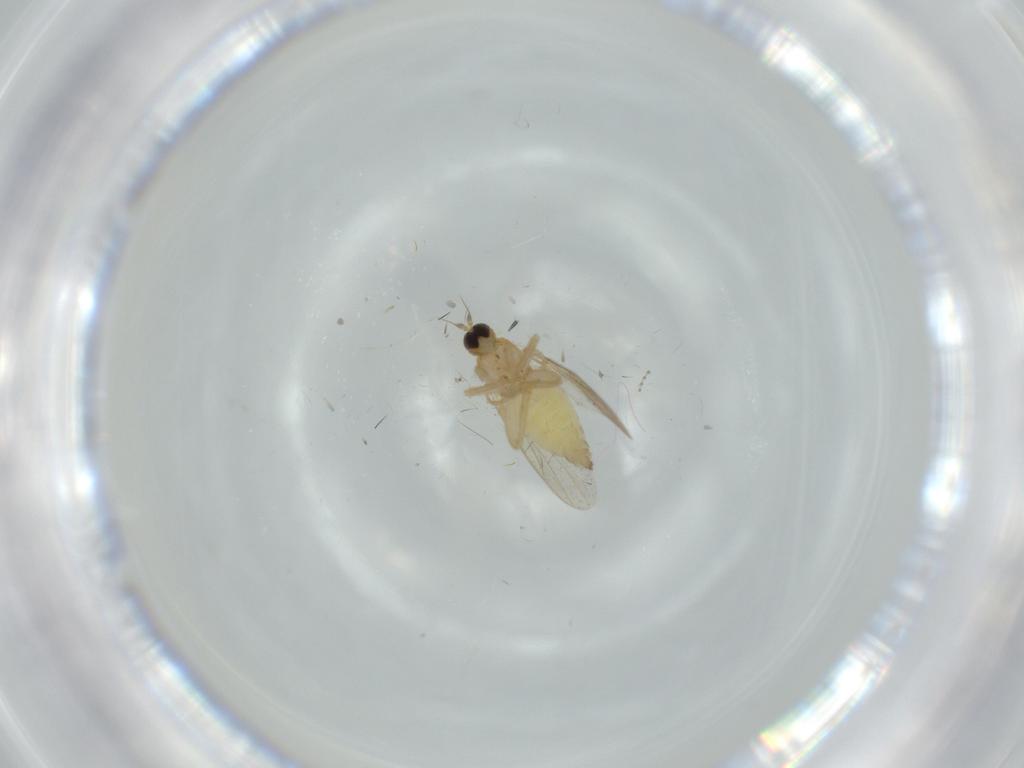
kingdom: Animalia
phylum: Arthropoda
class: Insecta
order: Diptera
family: Hybotidae
